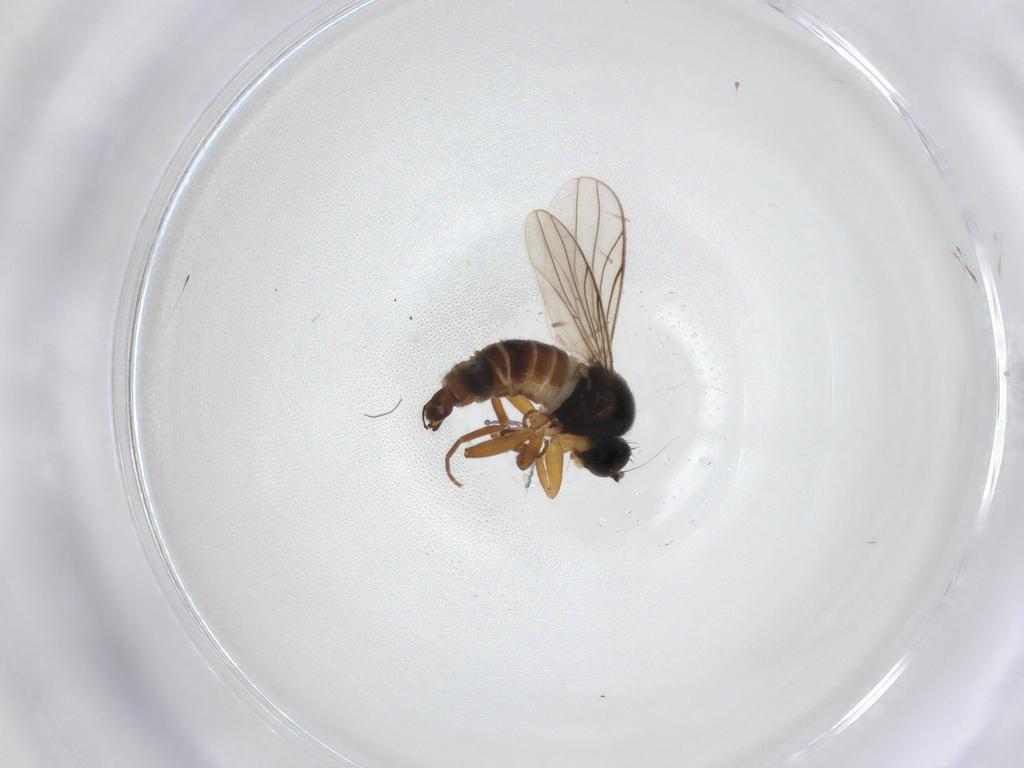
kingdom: Animalia
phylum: Arthropoda
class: Insecta
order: Diptera
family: Hybotidae
